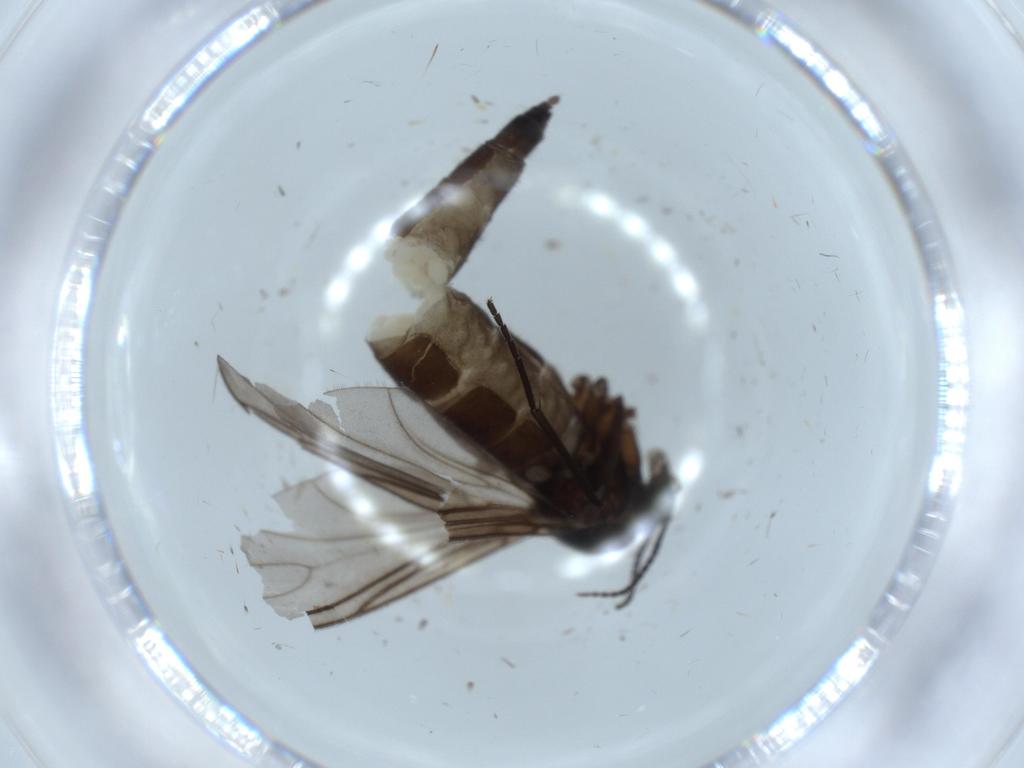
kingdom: Animalia
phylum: Arthropoda
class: Insecta
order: Diptera
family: Sciaridae
